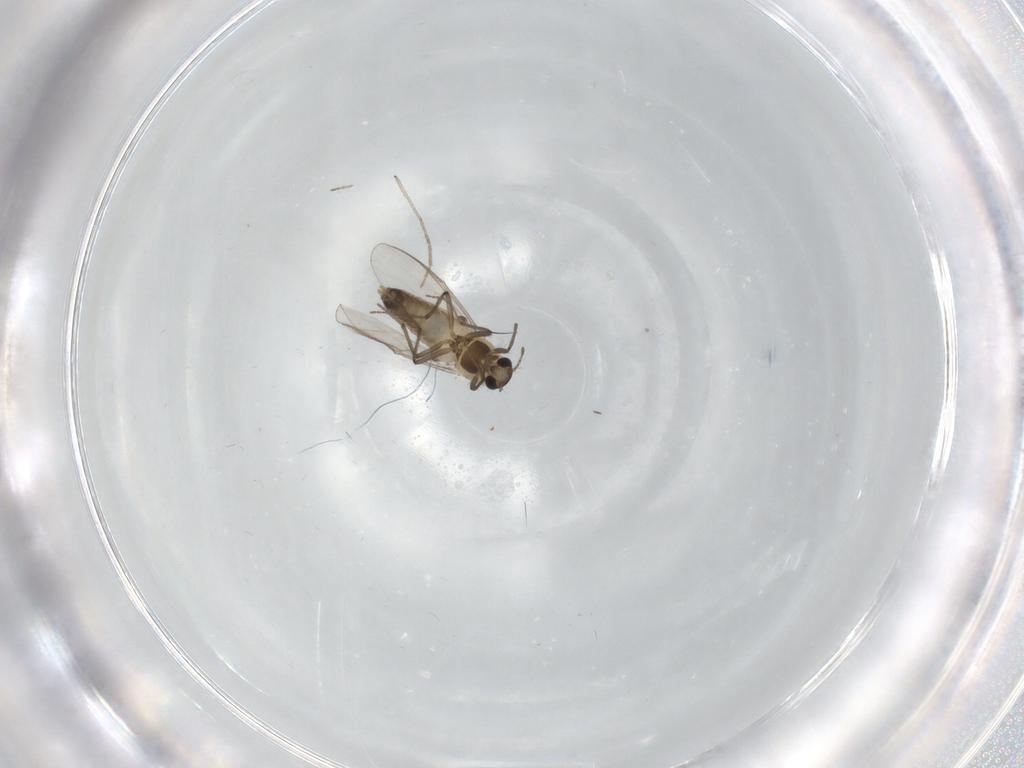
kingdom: Animalia
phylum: Arthropoda
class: Insecta
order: Diptera
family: Chironomidae
